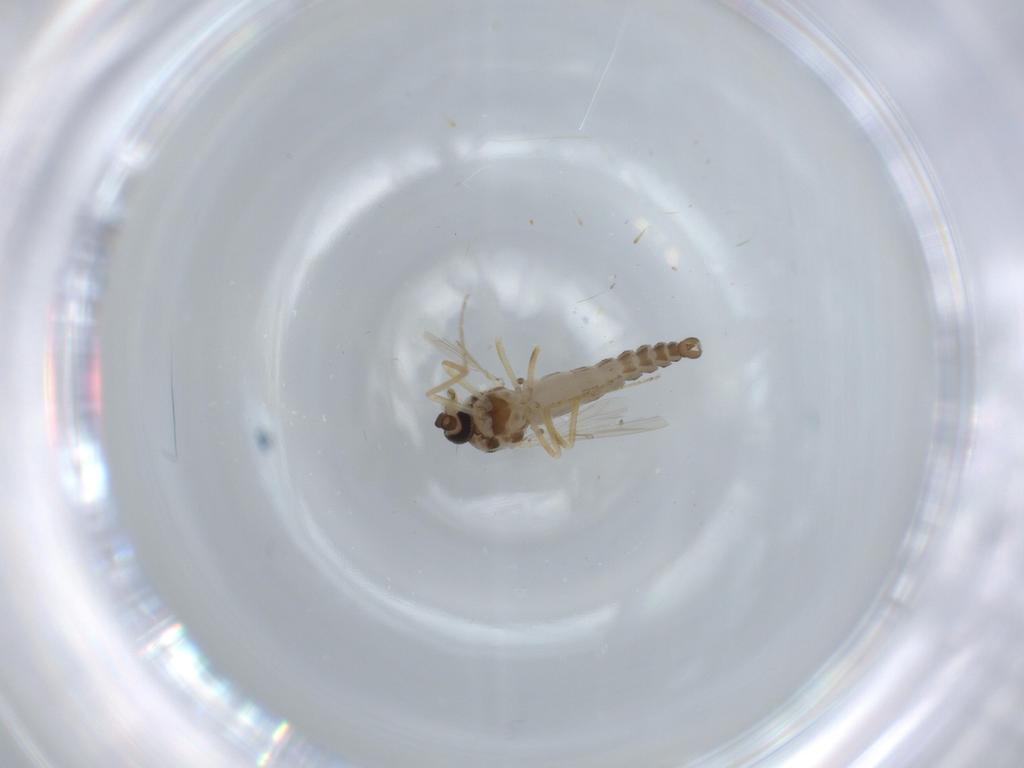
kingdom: Animalia
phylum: Arthropoda
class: Insecta
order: Diptera
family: Ceratopogonidae
